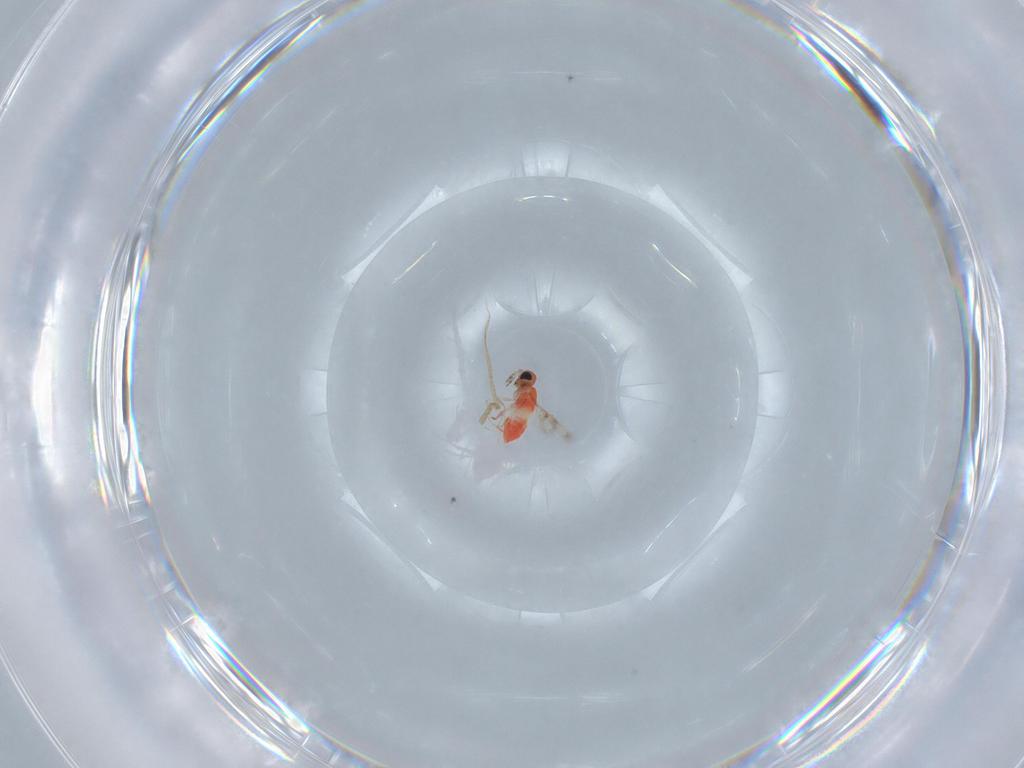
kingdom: Animalia
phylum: Arthropoda
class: Insecta
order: Hymenoptera
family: Trichogrammatidae
